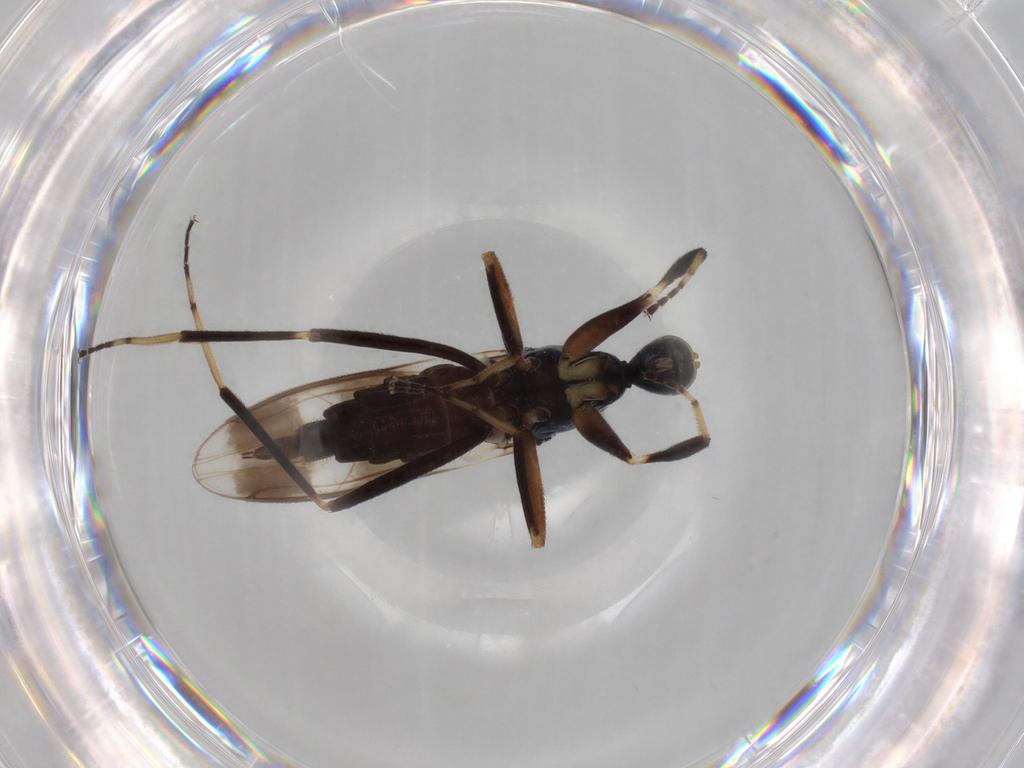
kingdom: Animalia
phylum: Arthropoda
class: Insecta
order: Diptera
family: Hybotidae
